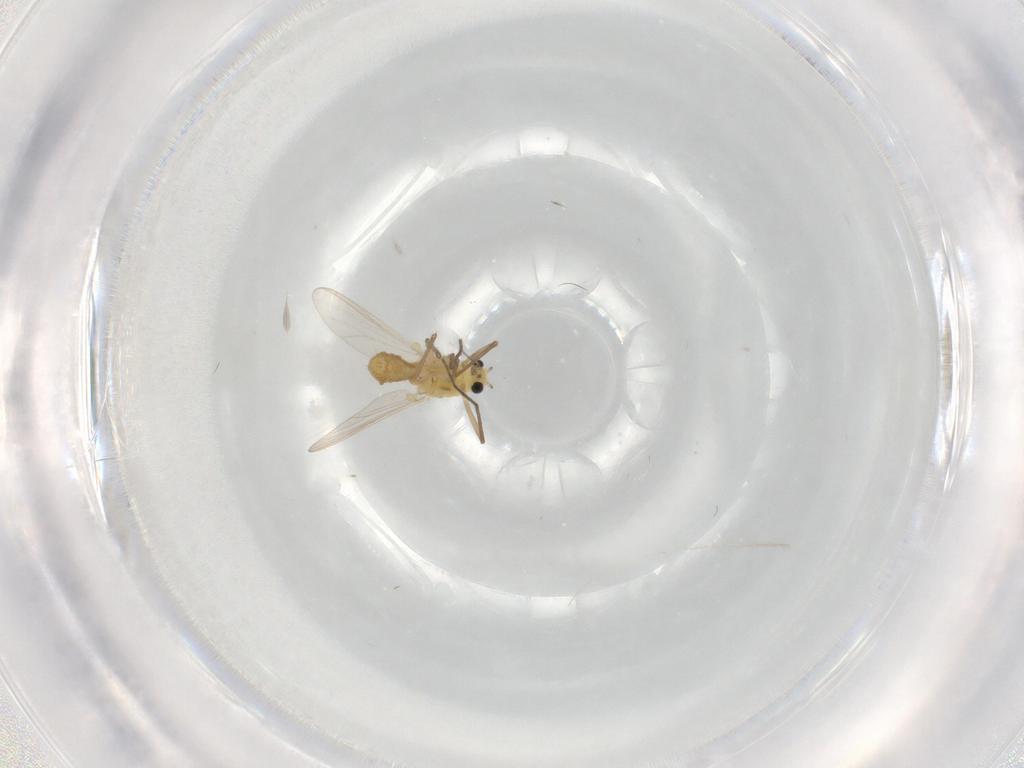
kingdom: Animalia
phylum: Arthropoda
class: Insecta
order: Diptera
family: Chironomidae
